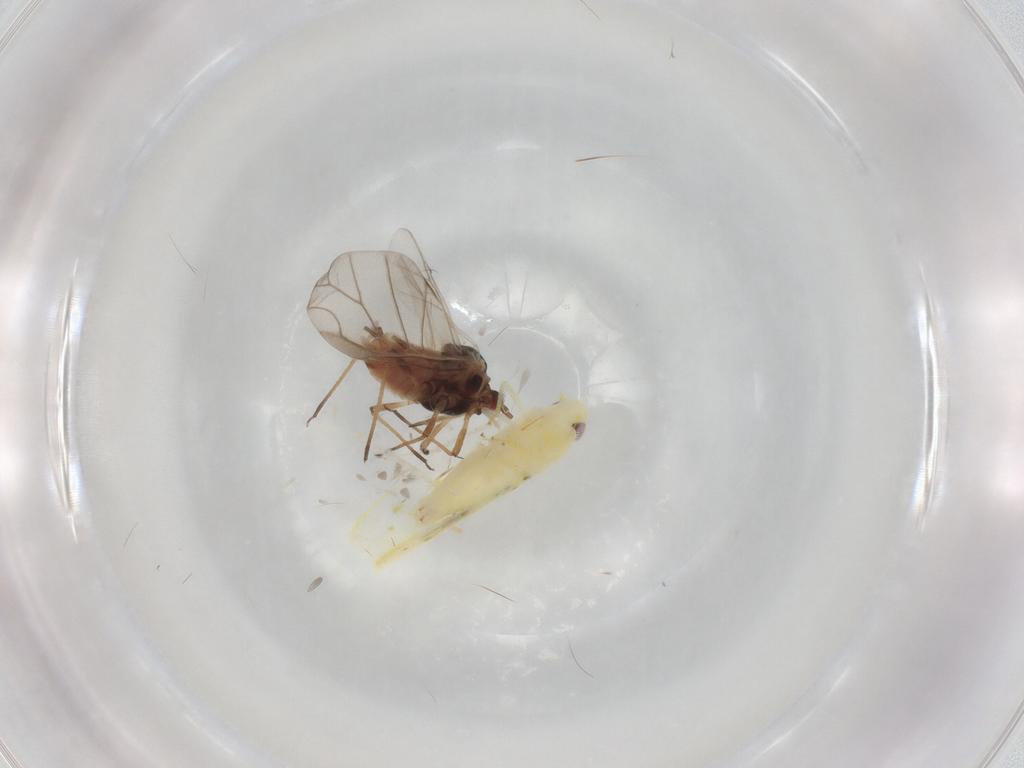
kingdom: Animalia
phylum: Arthropoda
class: Insecta
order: Hemiptera
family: Aphididae
